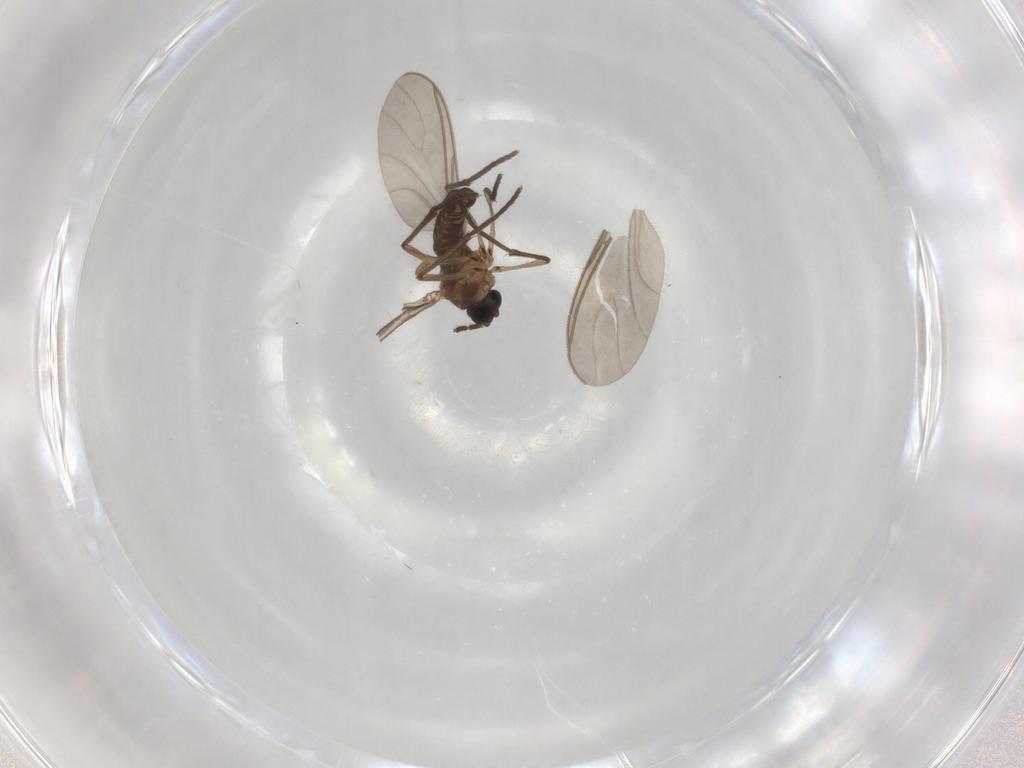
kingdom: Animalia
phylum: Arthropoda
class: Insecta
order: Diptera
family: Sciaridae
